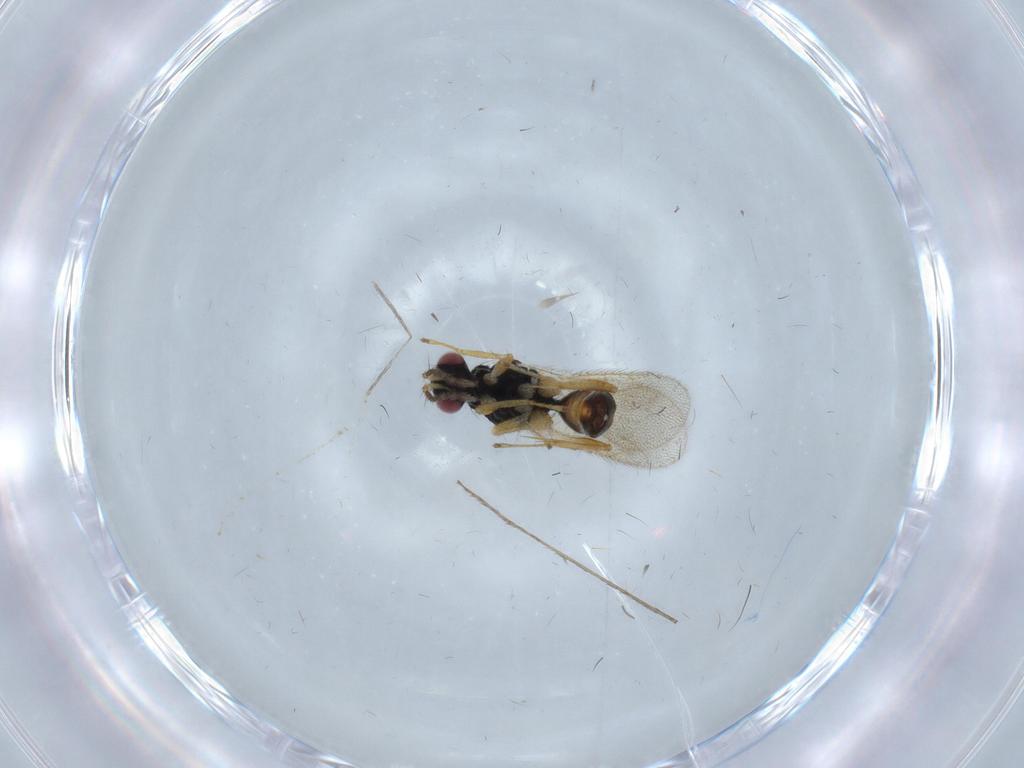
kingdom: Animalia
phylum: Arthropoda
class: Insecta
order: Hymenoptera
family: Eulophidae
